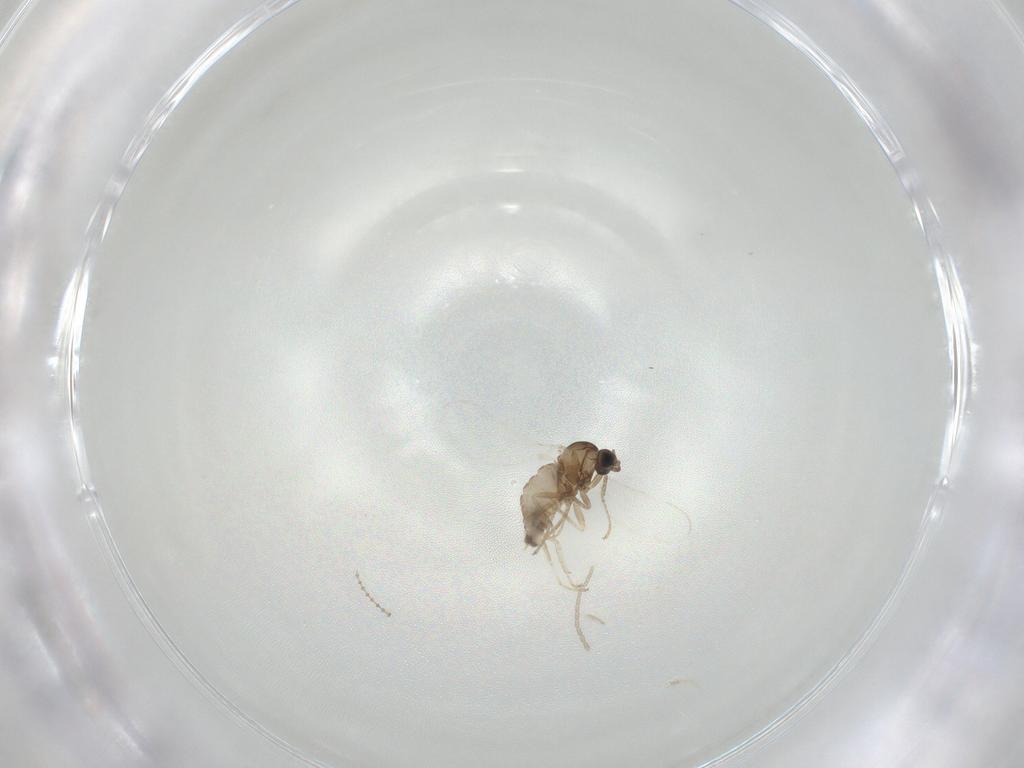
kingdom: Animalia
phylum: Arthropoda
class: Insecta
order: Diptera
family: Cecidomyiidae
